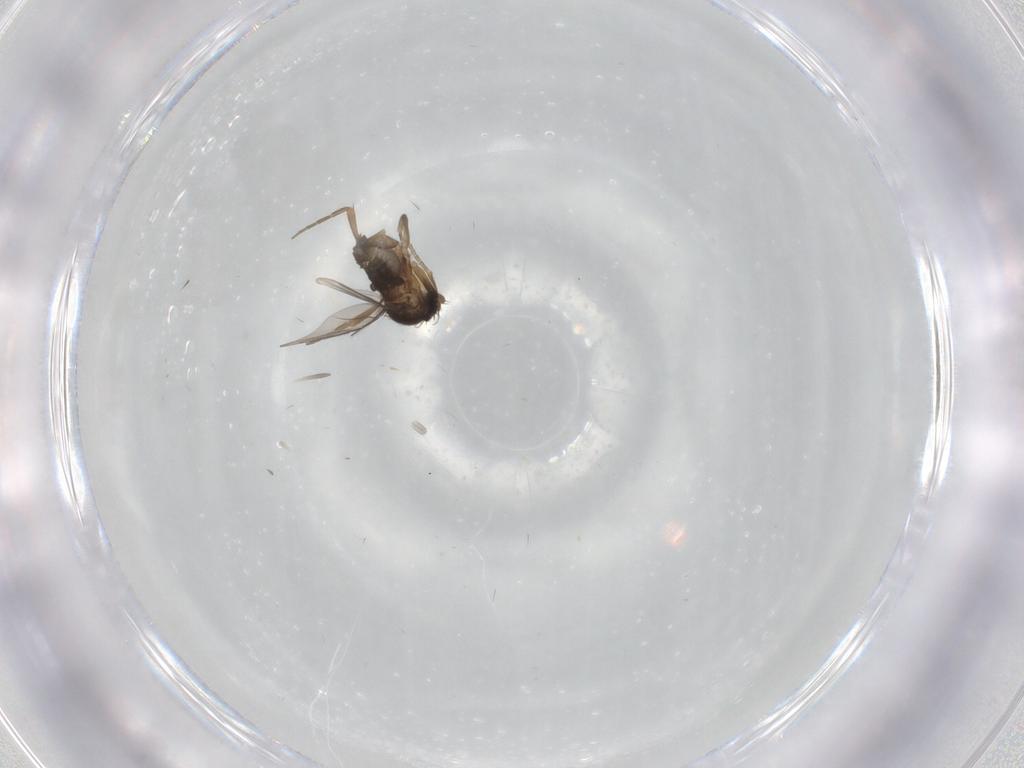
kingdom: Animalia
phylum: Arthropoda
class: Insecta
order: Diptera
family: Phoridae
